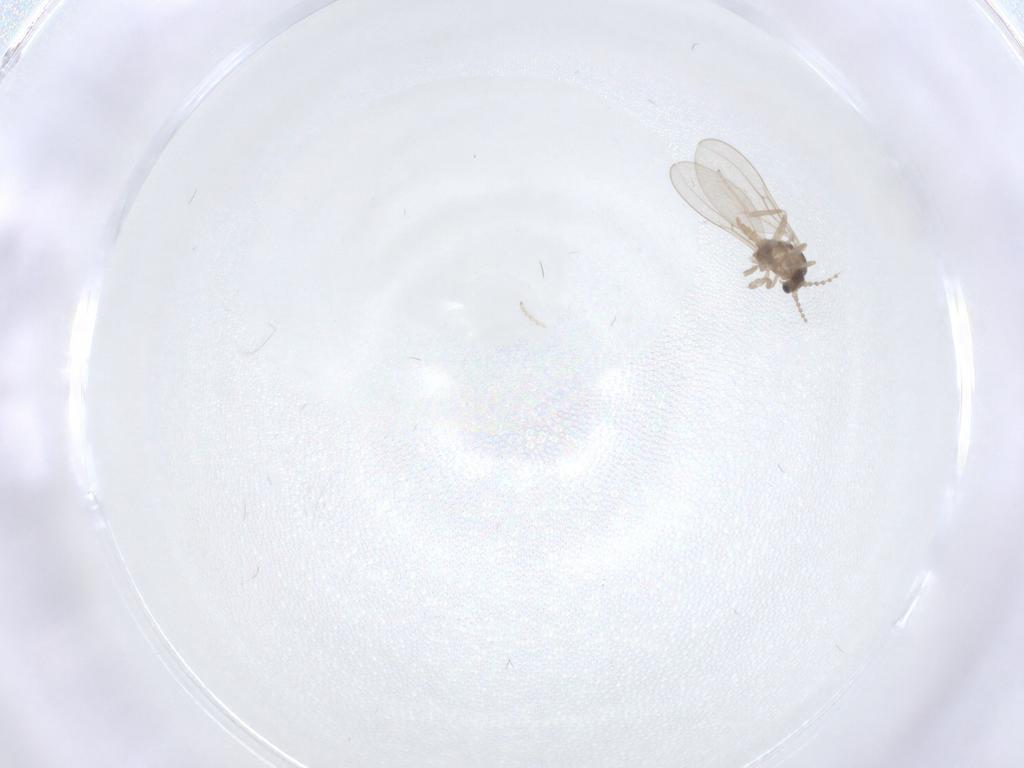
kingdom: Animalia
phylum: Arthropoda
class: Insecta
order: Diptera
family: Cecidomyiidae
